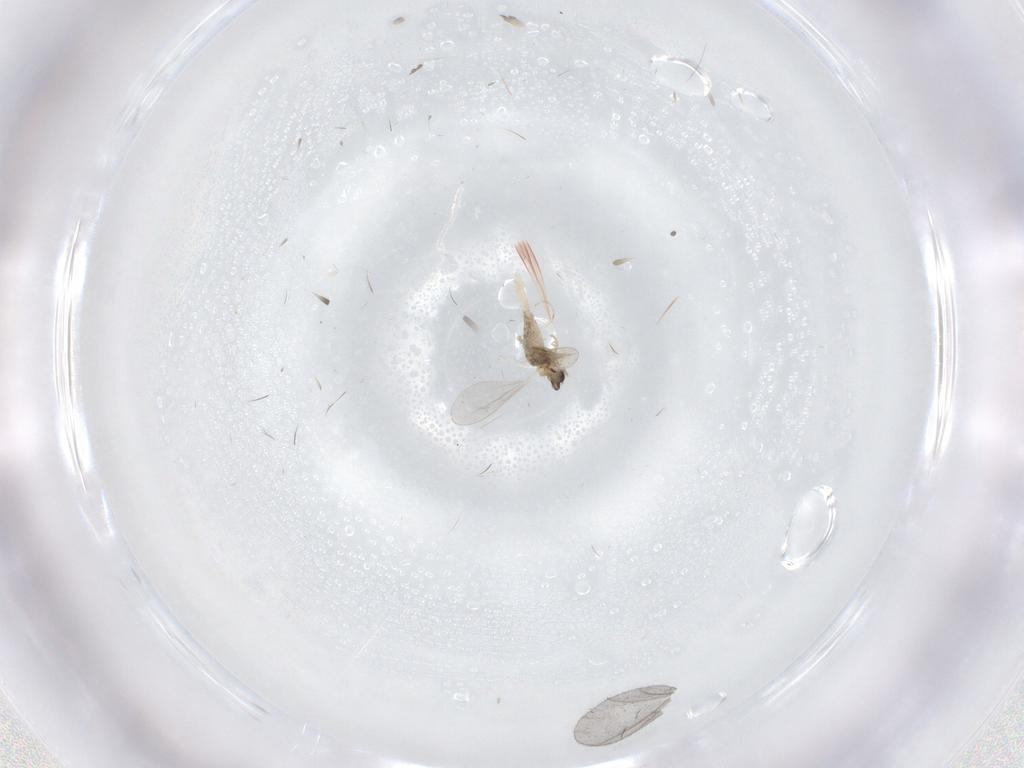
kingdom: Animalia
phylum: Arthropoda
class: Insecta
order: Diptera
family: Sciaridae
